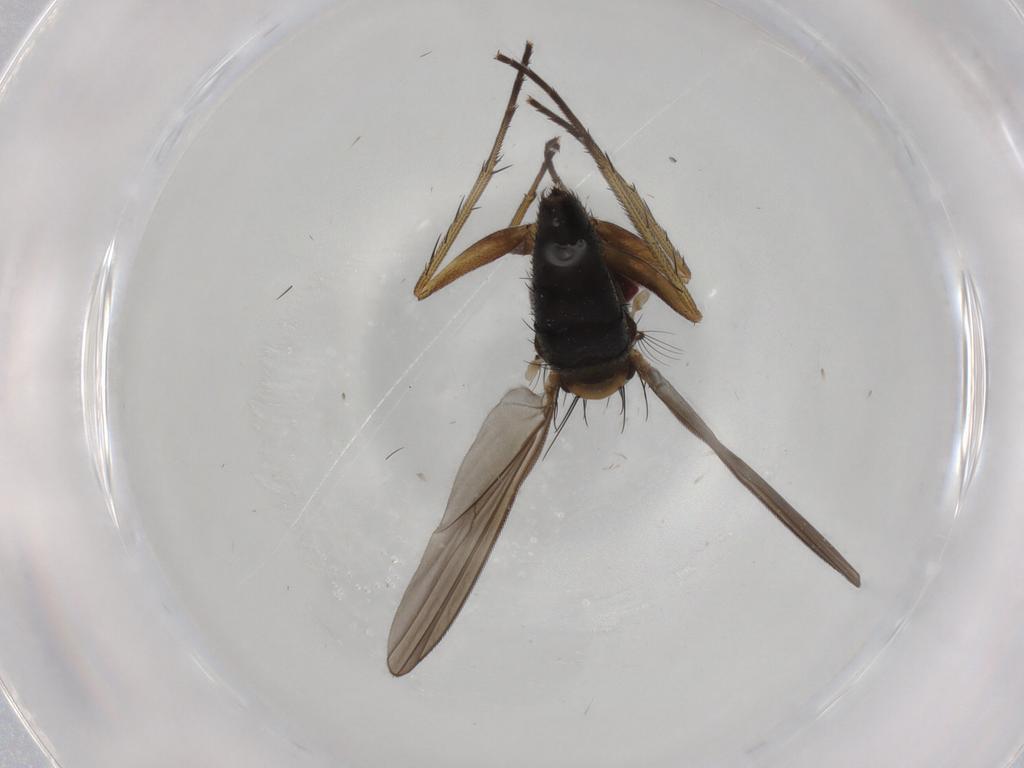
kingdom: Animalia
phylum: Arthropoda
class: Insecta
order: Diptera
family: Dolichopodidae
